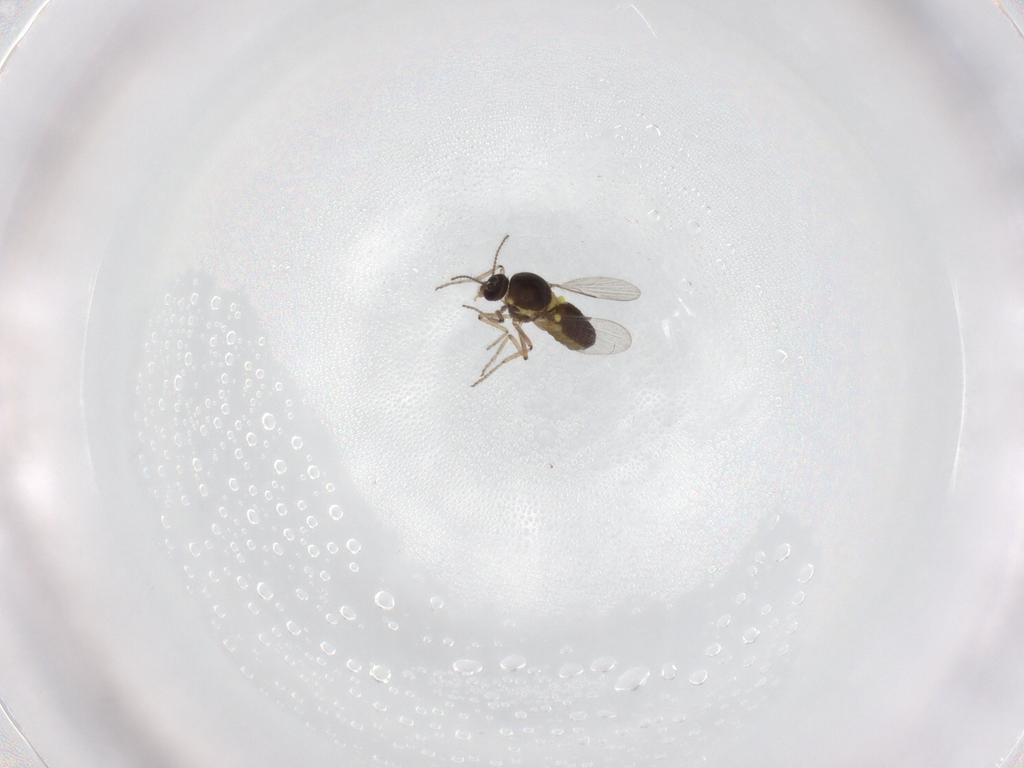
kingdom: Animalia
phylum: Arthropoda
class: Insecta
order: Diptera
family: Ceratopogonidae
